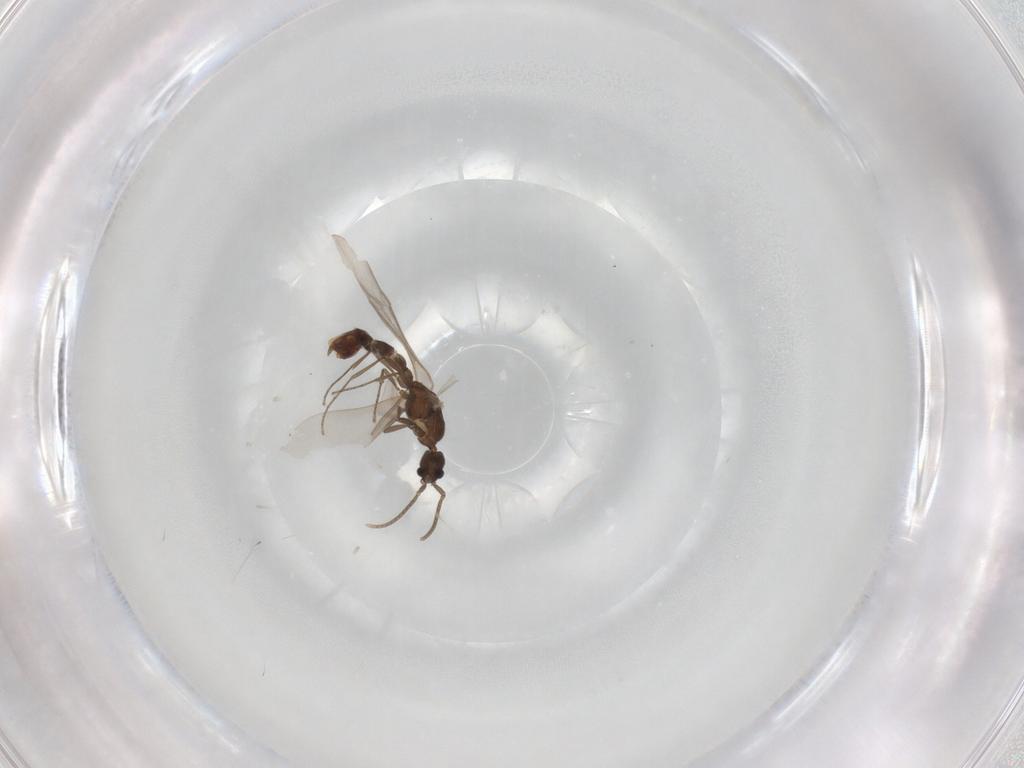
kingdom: Animalia
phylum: Arthropoda
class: Insecta
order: Hymenoptera
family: Formicidae
